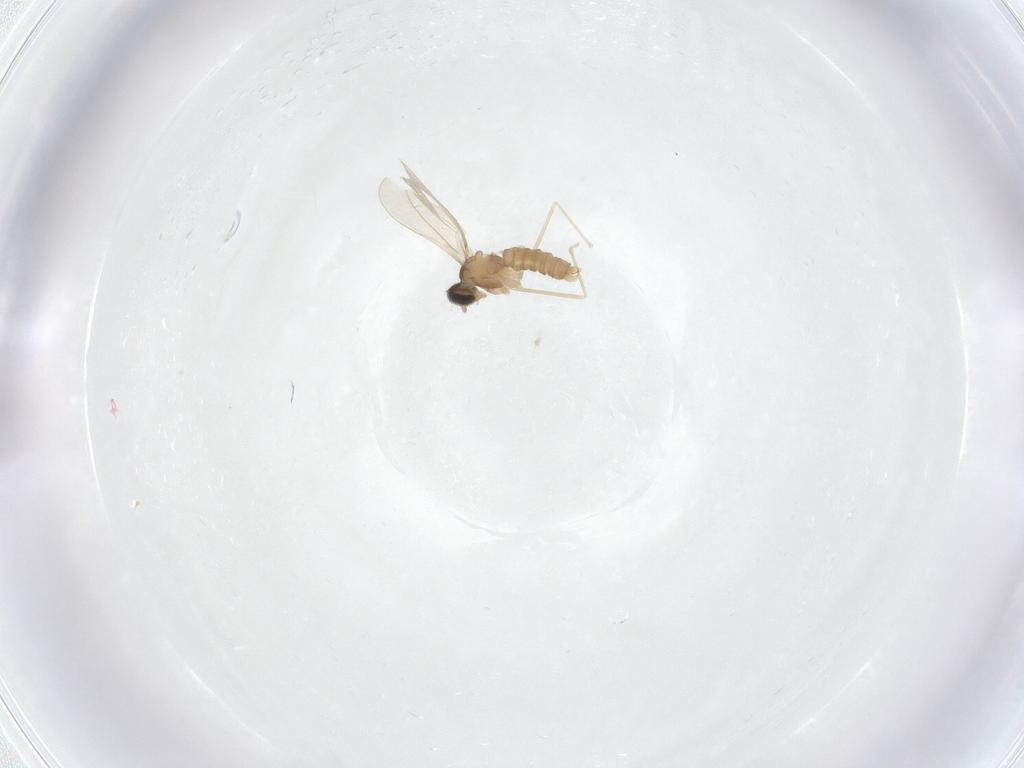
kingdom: Animalia
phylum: Arthropoda
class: Insecta
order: Diptera
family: Cecidomyiidae
